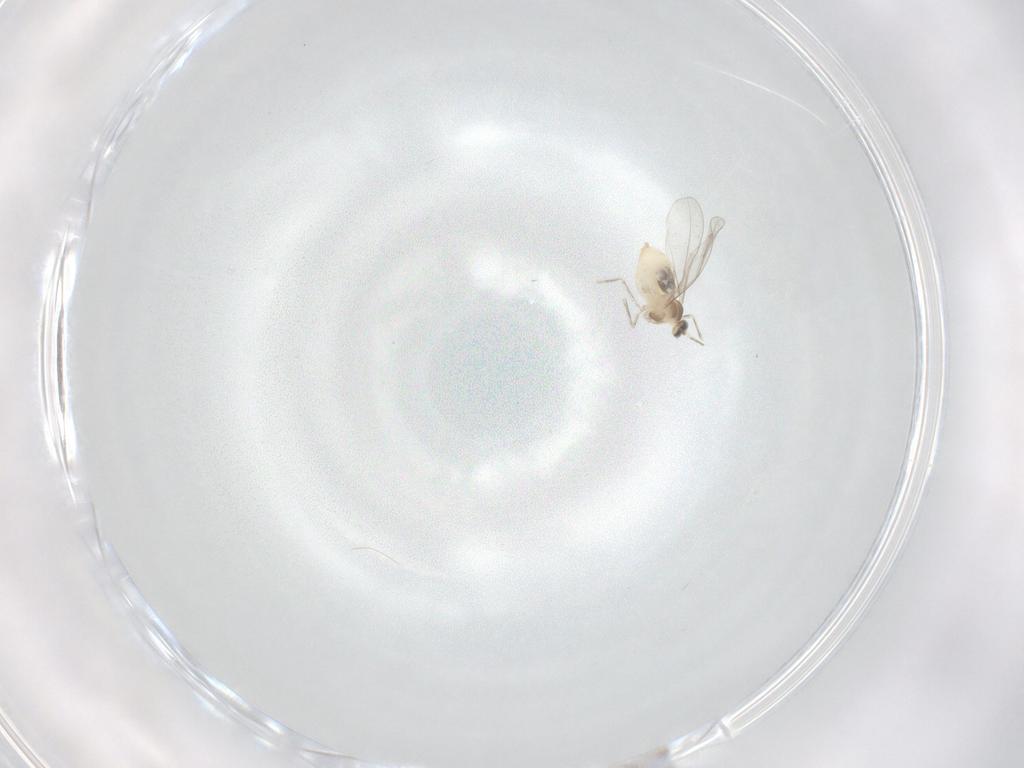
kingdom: Animalia
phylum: Arthropoda
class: Insecta
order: Diptera
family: Cecidomyiidae
